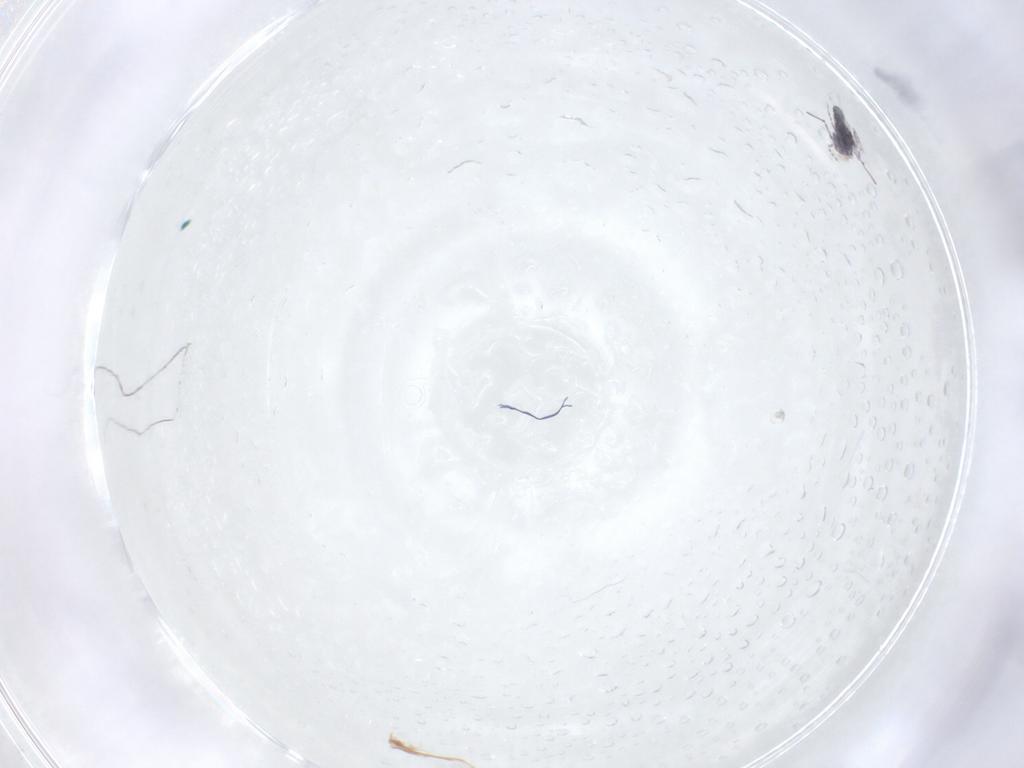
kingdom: Animalia
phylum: Arthropoda
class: Collembola
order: Symphypleona
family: Bourletiellidae
